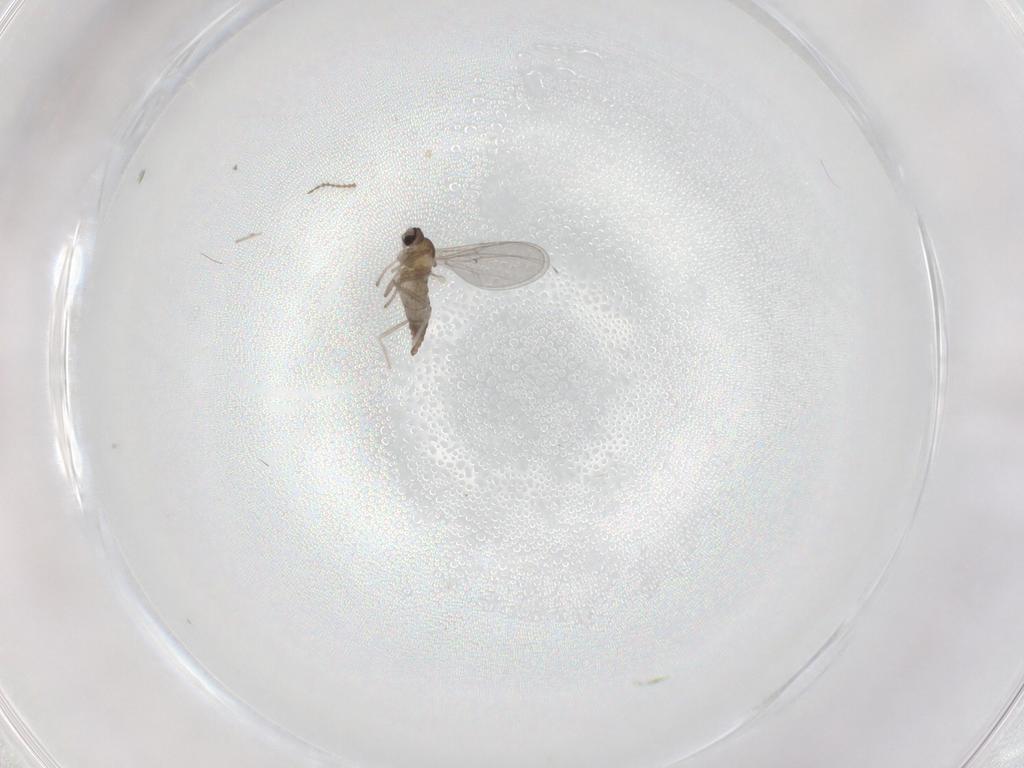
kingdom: Animalia
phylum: Arthropoda
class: Insecta
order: Diptera
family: Cecidomyiidae
